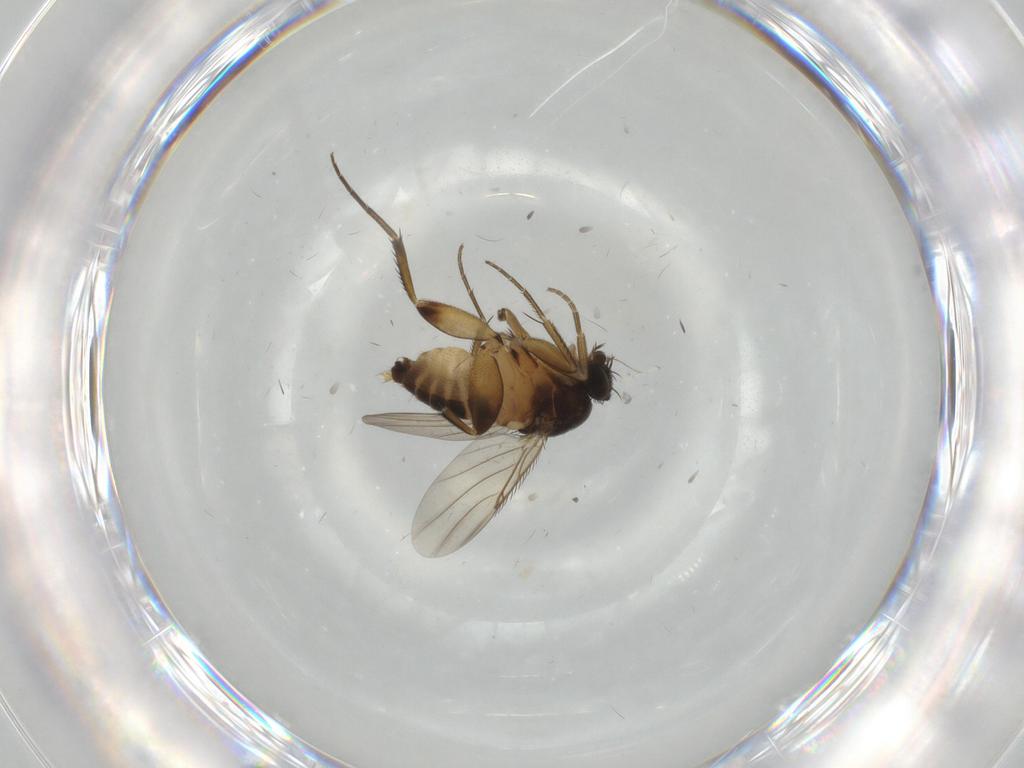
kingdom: Animalia
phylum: Arthropoda
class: Insecta
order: Diptera
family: Phoridae
